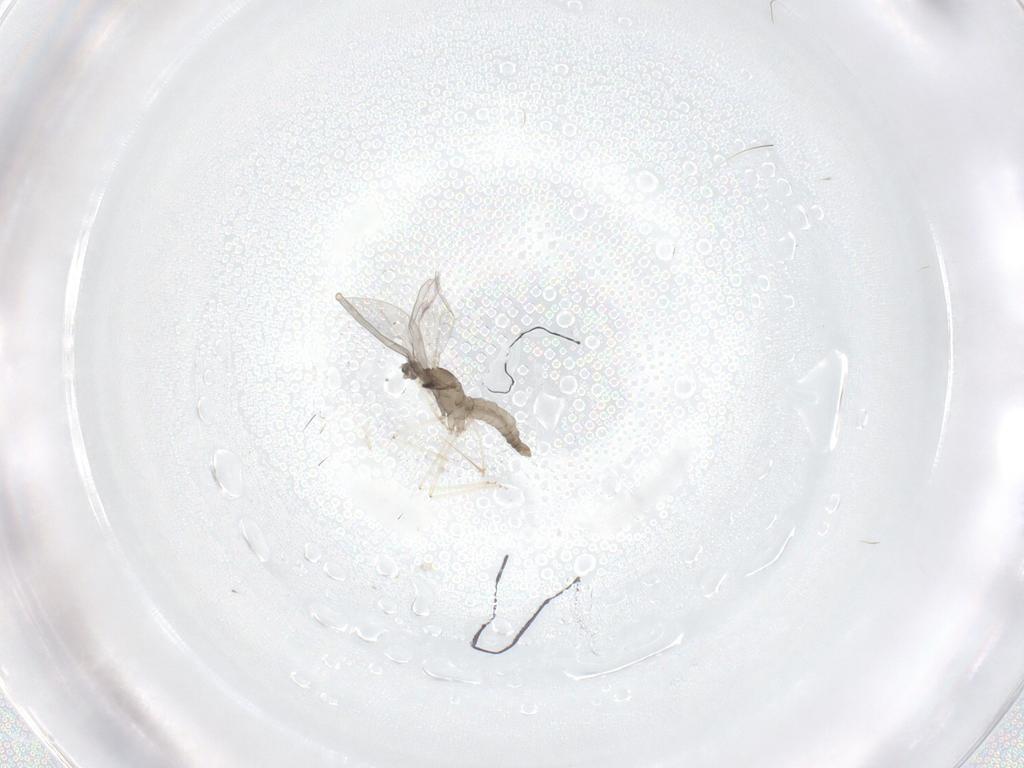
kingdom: Animalia
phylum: Arthropoda
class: Insecta
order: Diptera
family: Sciaridae
